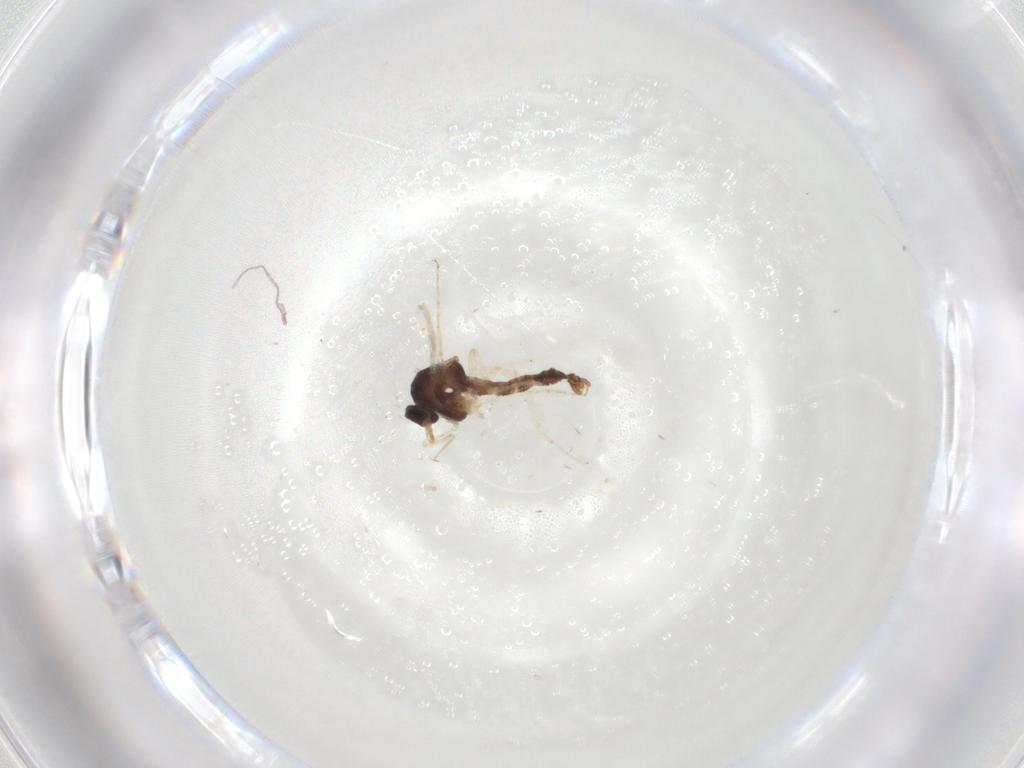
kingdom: Animalia
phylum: Arthropoda
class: Insecta
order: Diptera
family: Ceratopogonidae
